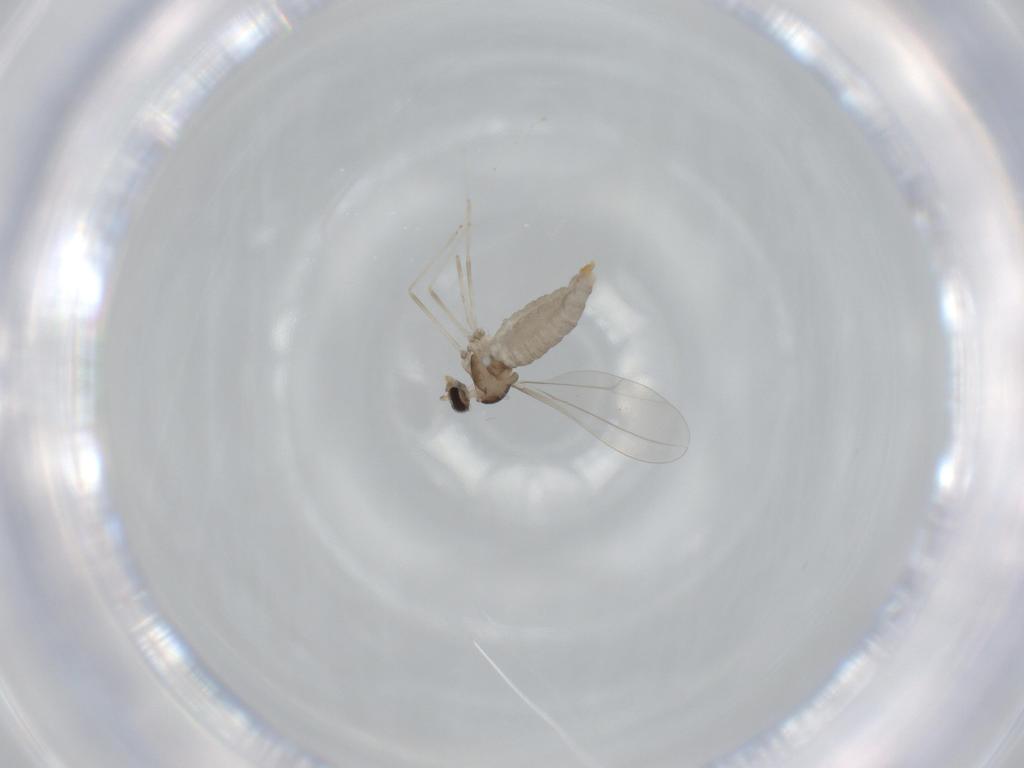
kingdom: Animalia
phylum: Arthropoda
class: Insecta
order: Diptera
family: Cecidomyiidae
